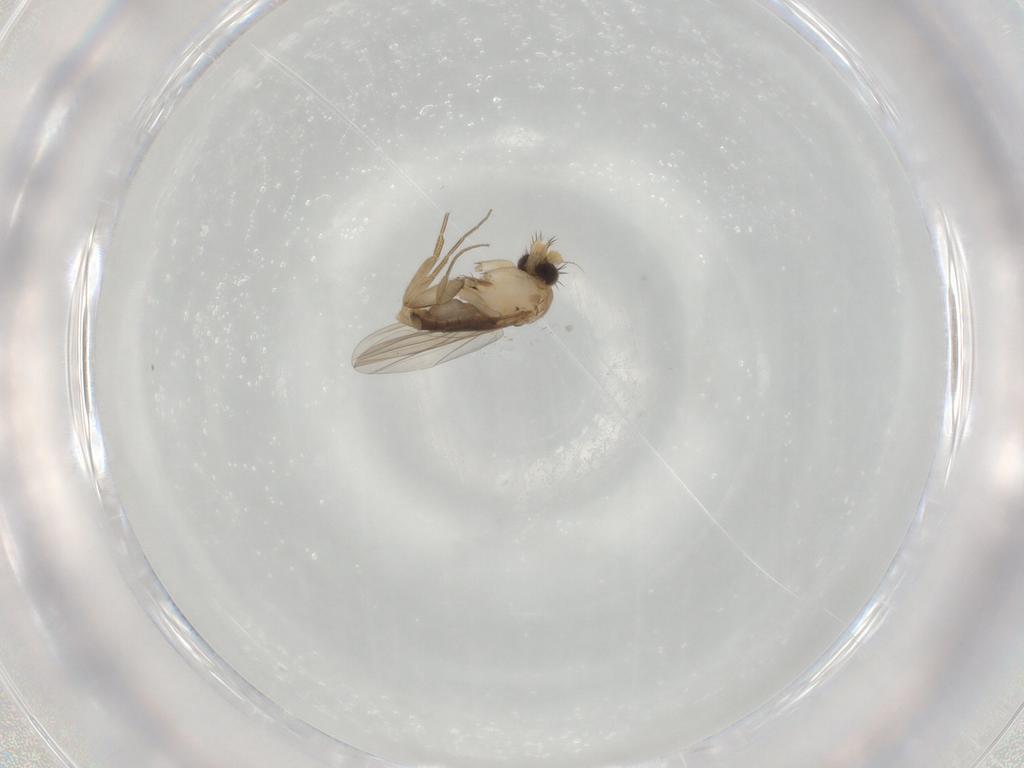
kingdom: Animalia
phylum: Arthropoda
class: Insecta
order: Diptera
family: Phoridae
